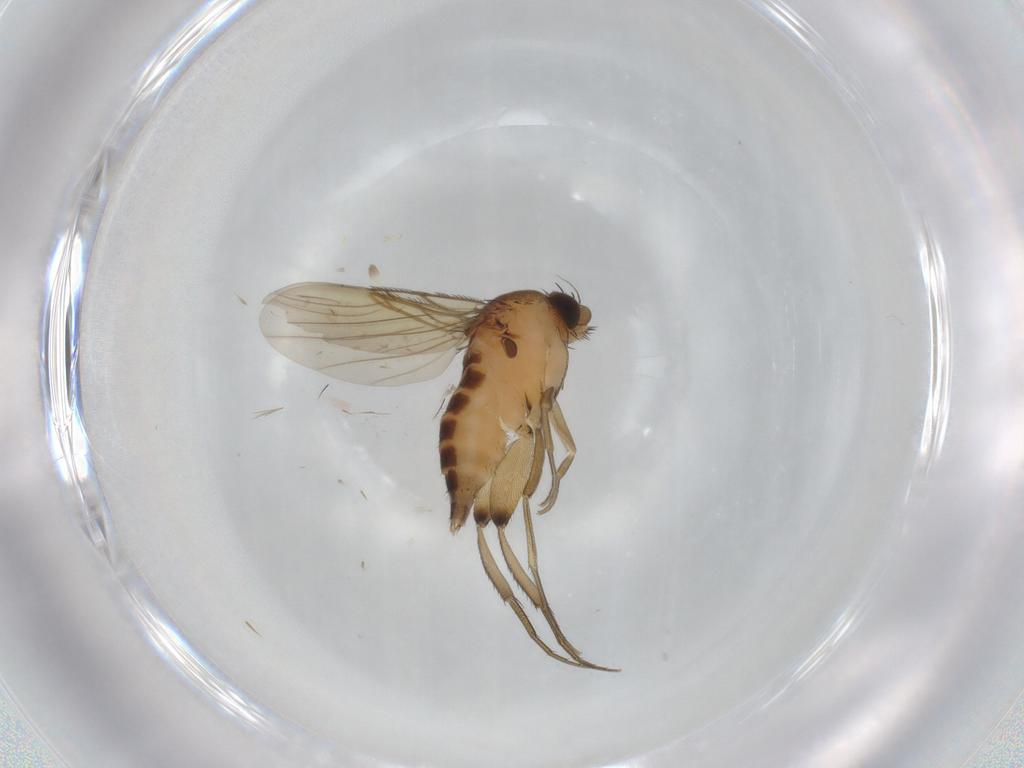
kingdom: Animalia
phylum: Arthropoda
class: Insecta
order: Diptera
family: Phoridae
